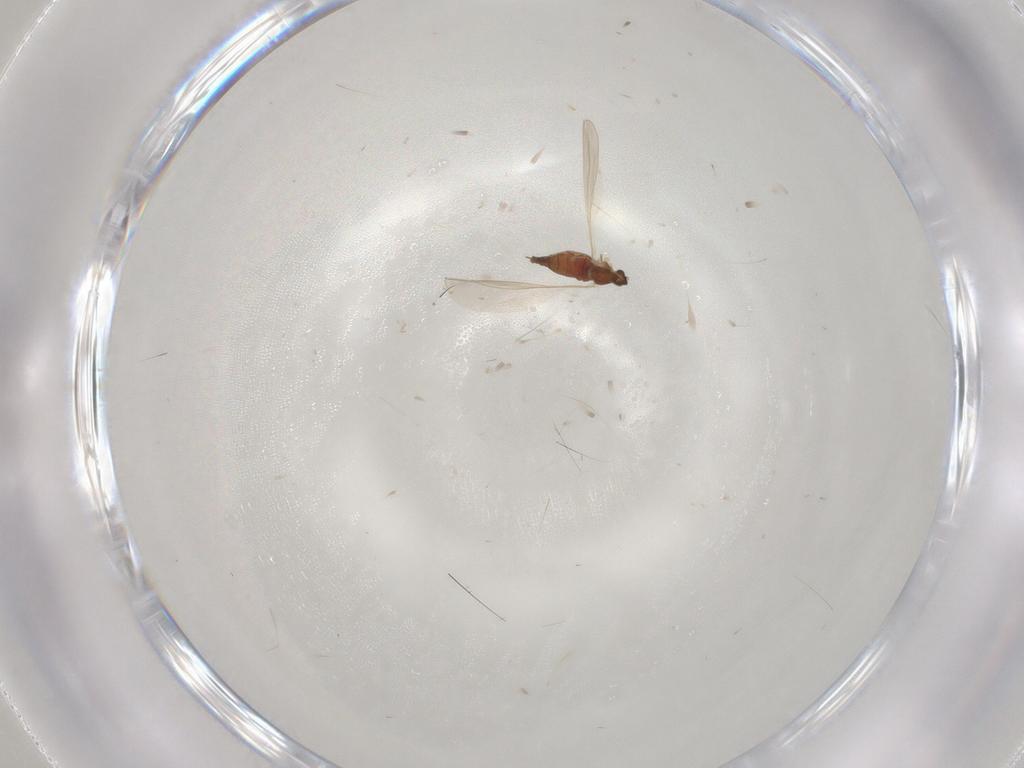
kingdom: Animalia
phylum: Arthropoda
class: Insecta
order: Diptera
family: Cecidomyiidae
